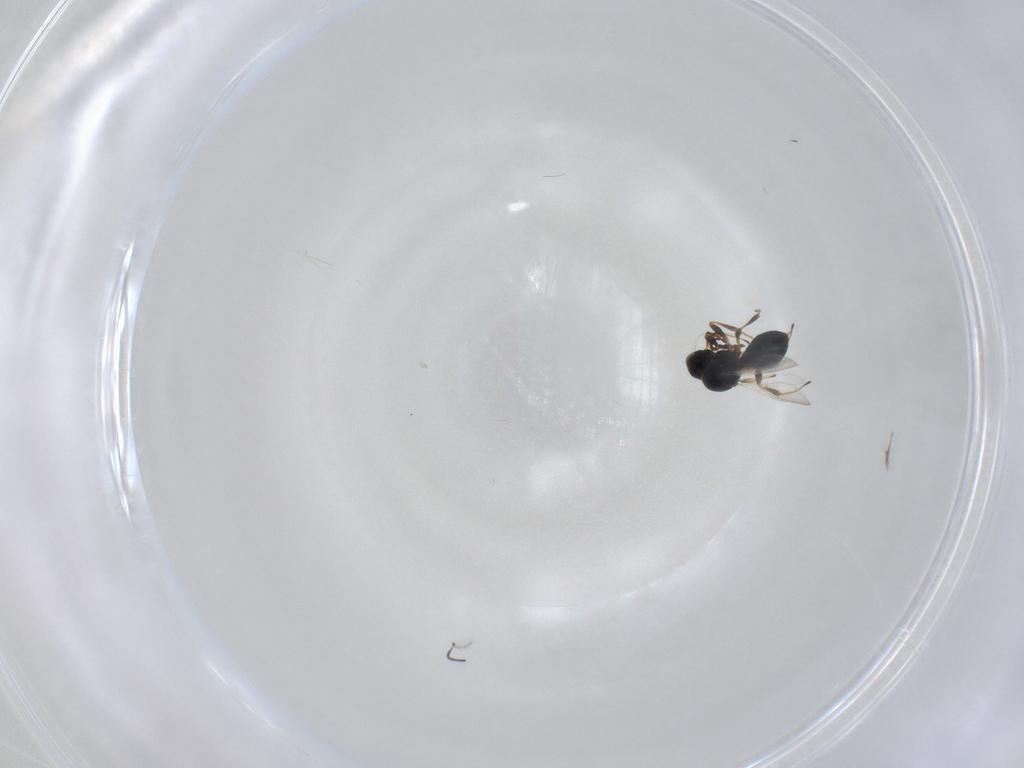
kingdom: Animalia
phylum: Arthropoda
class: Insecta
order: Hymenoptera
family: Platygastridae
